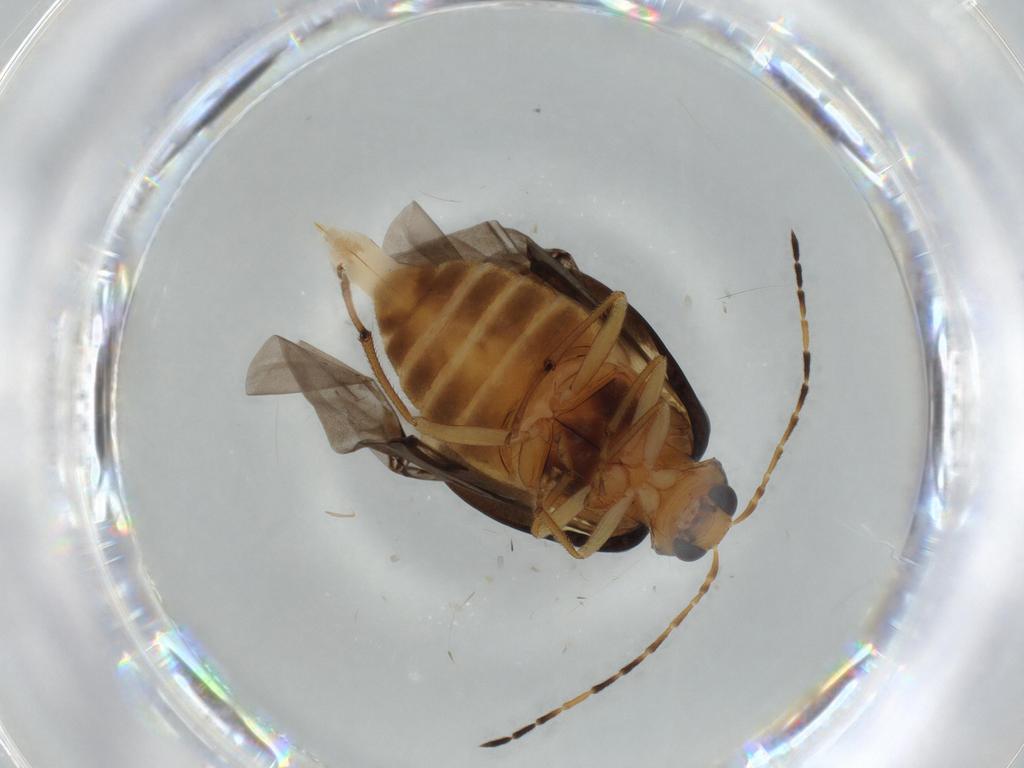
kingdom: Animalia
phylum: Arthropoda
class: Insecta
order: Coleoptera
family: Chrysomelidae
